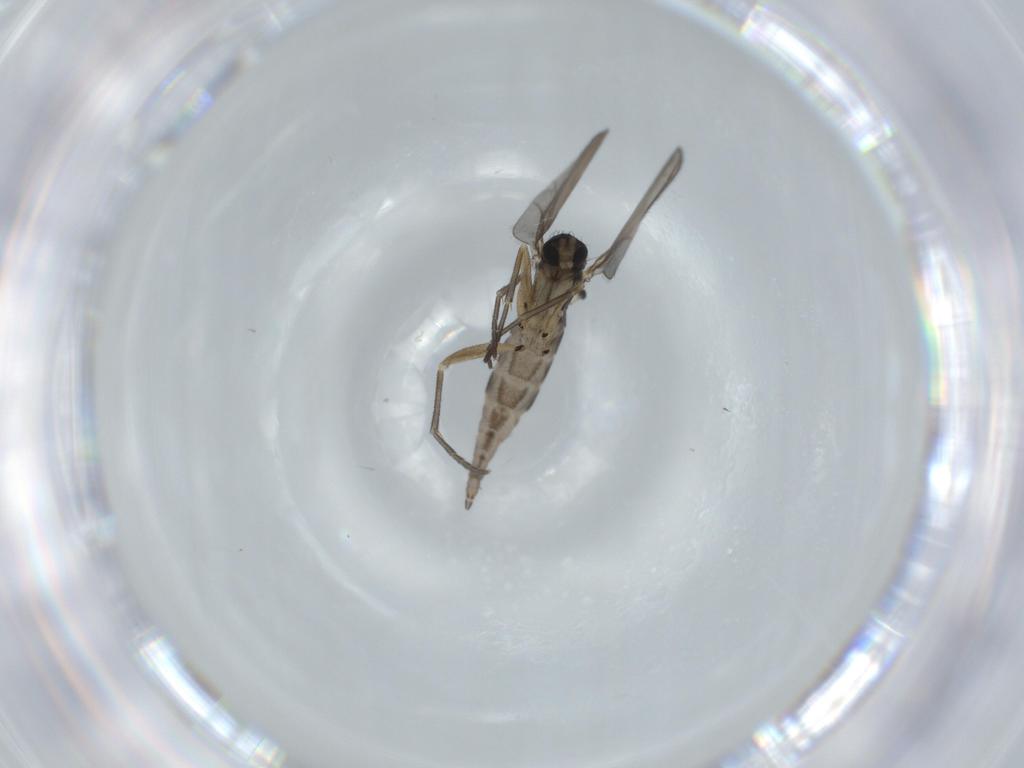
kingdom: Animalia
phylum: Arthropoda
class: Insecta
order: Diptera
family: Sciaridae
